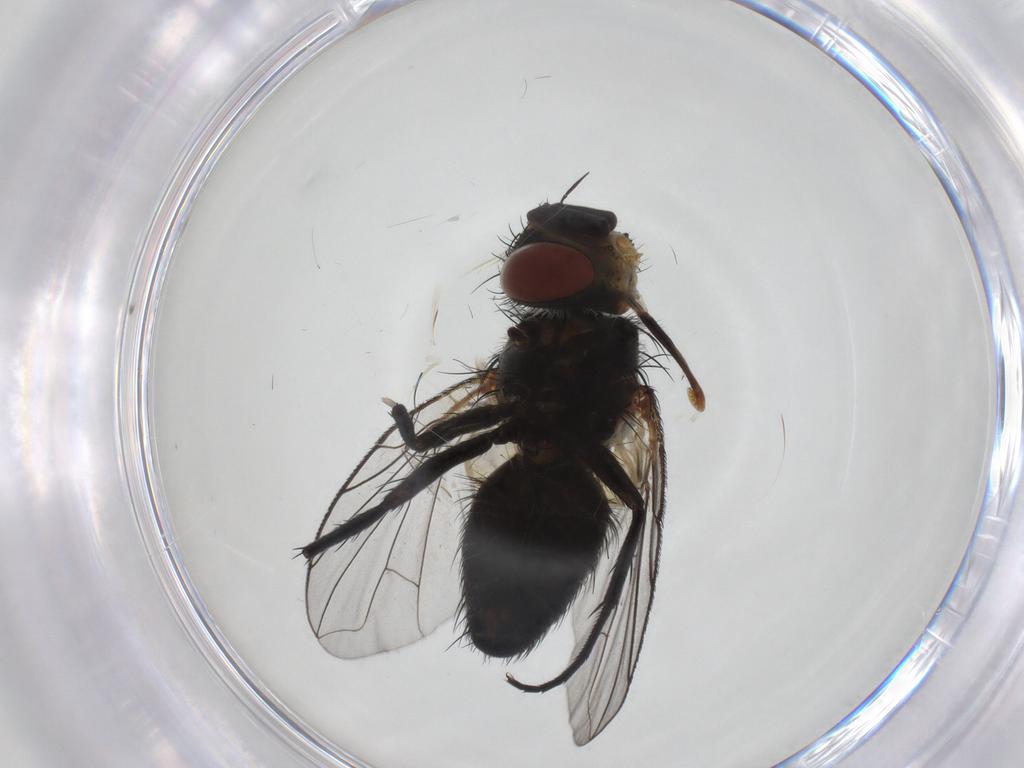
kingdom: Animalia
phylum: Arthropoda
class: Insecta
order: Diptera
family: Tachinidae
